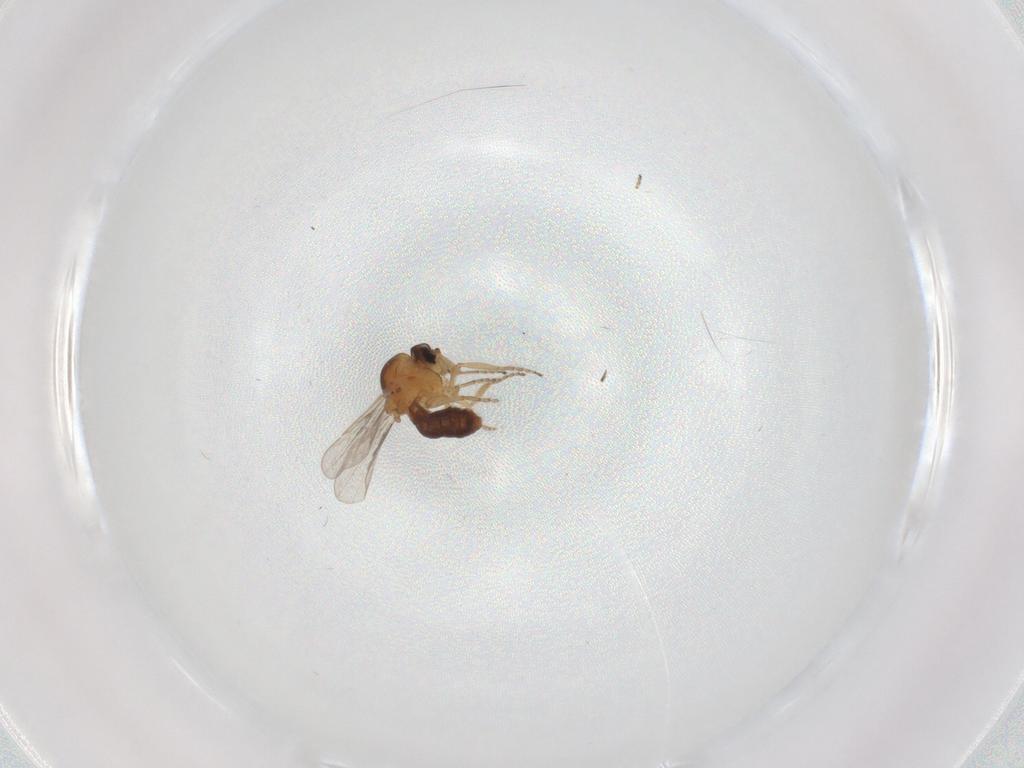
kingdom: Animalia
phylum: Arthropoda
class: Insecta
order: Diptera
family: Ceratopogonidae
